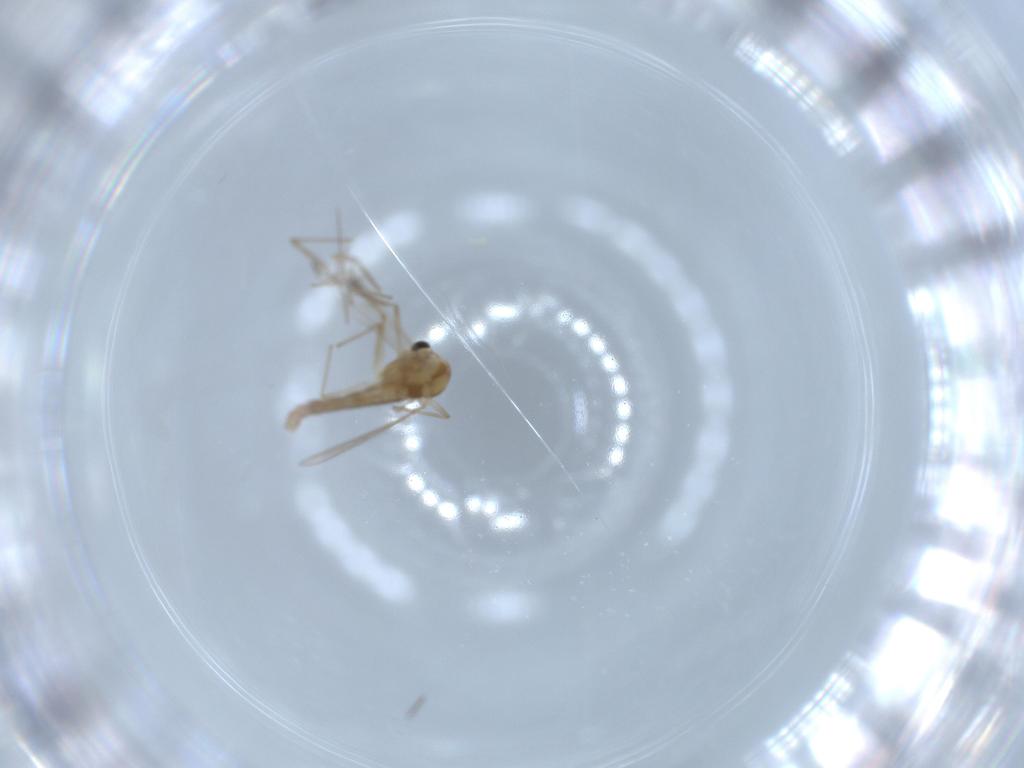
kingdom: Animalia
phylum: Arthropoda
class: Insecta
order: Diptera
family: Chironomidae
